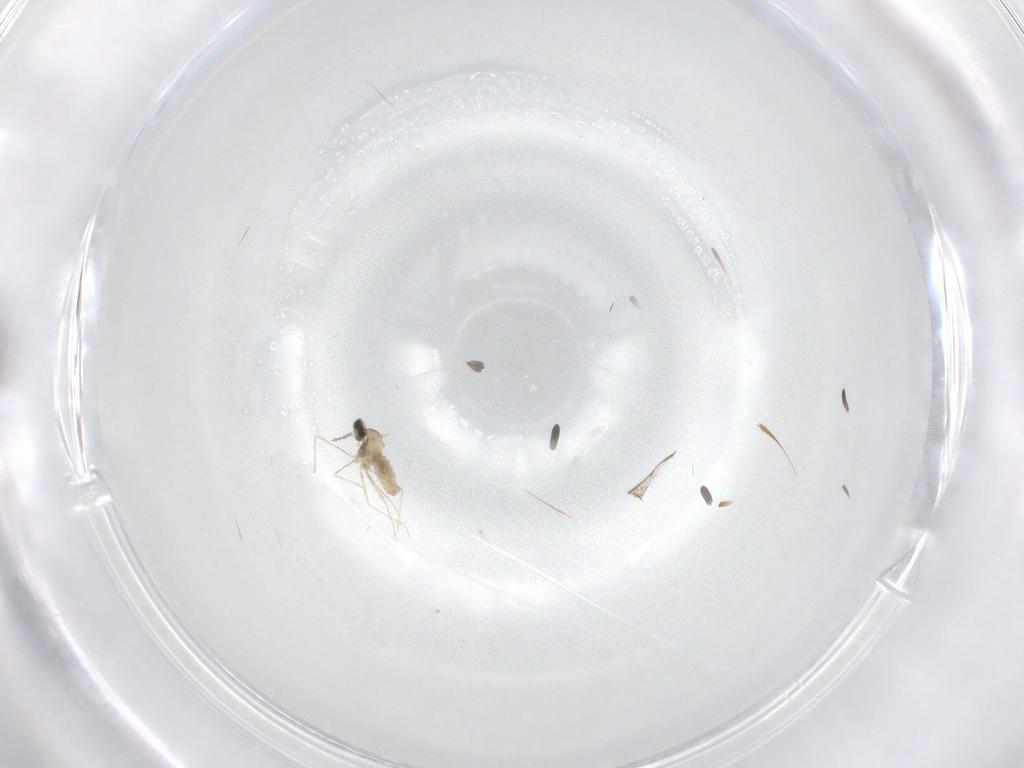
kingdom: Animalia
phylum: Arthropoda
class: Insecta
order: Diptera
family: Cecidomyiidae
